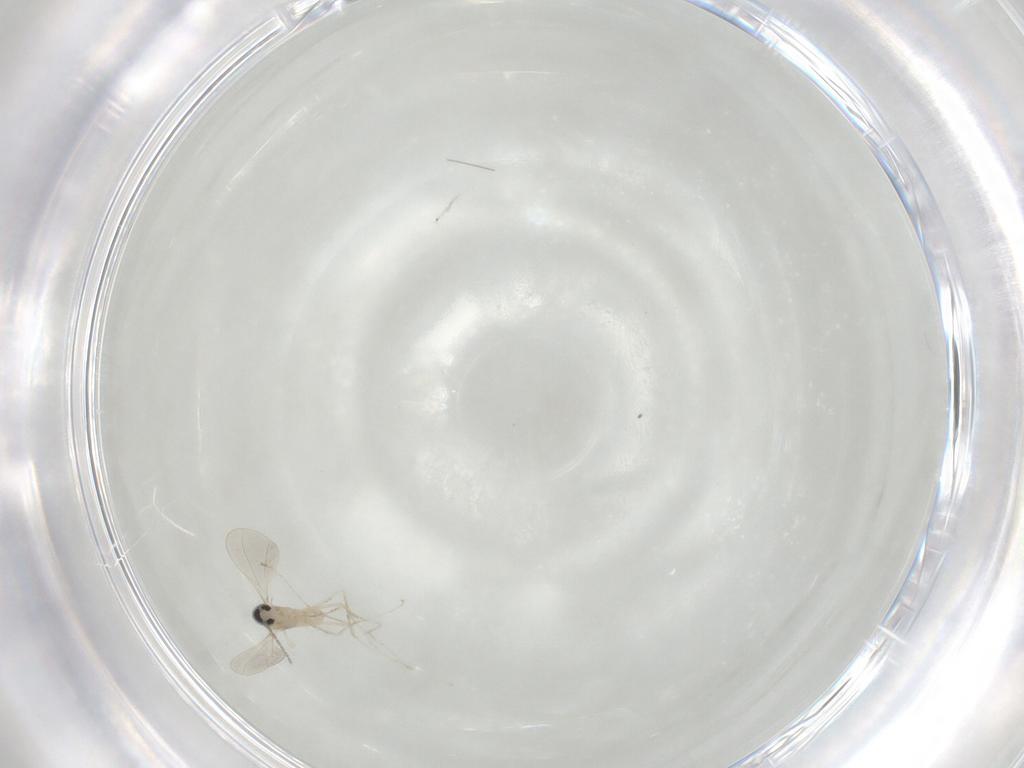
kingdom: Animalia
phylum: Arthropoda
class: Insecta
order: Diptera
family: Cecidomyiidae
